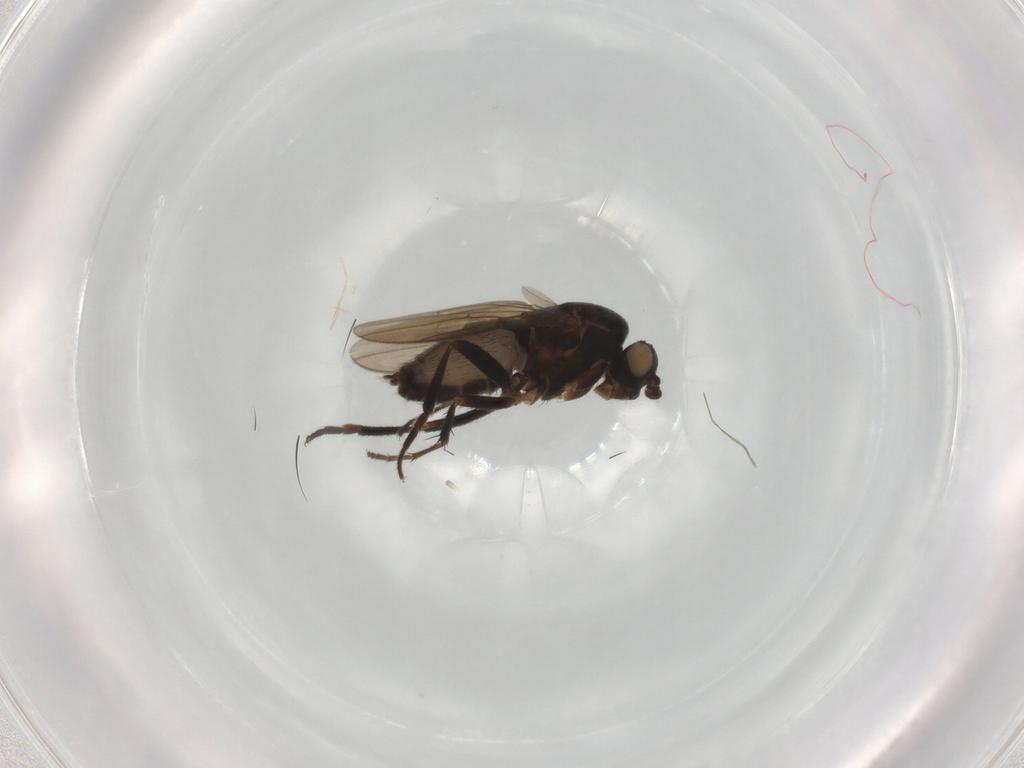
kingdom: Animalia
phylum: Arthropoda
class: Insecta
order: Diptera
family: Sphaeroceridae
